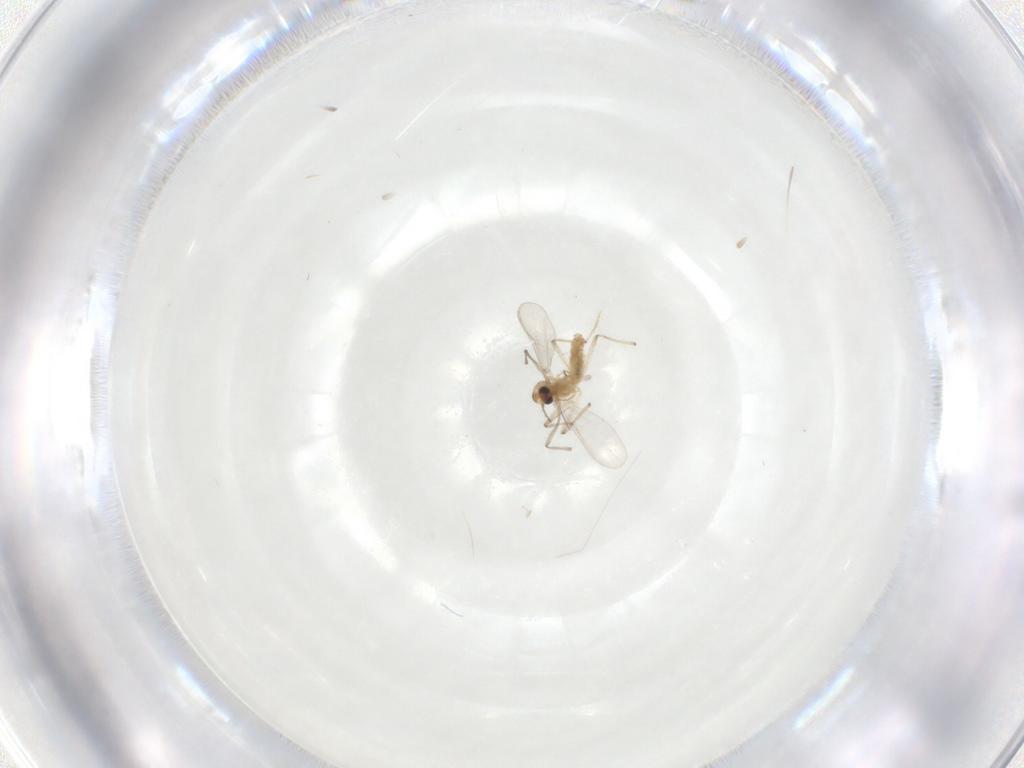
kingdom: Animalia
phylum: Arthropoda
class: Insecta
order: Diptera
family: Chironomidae
